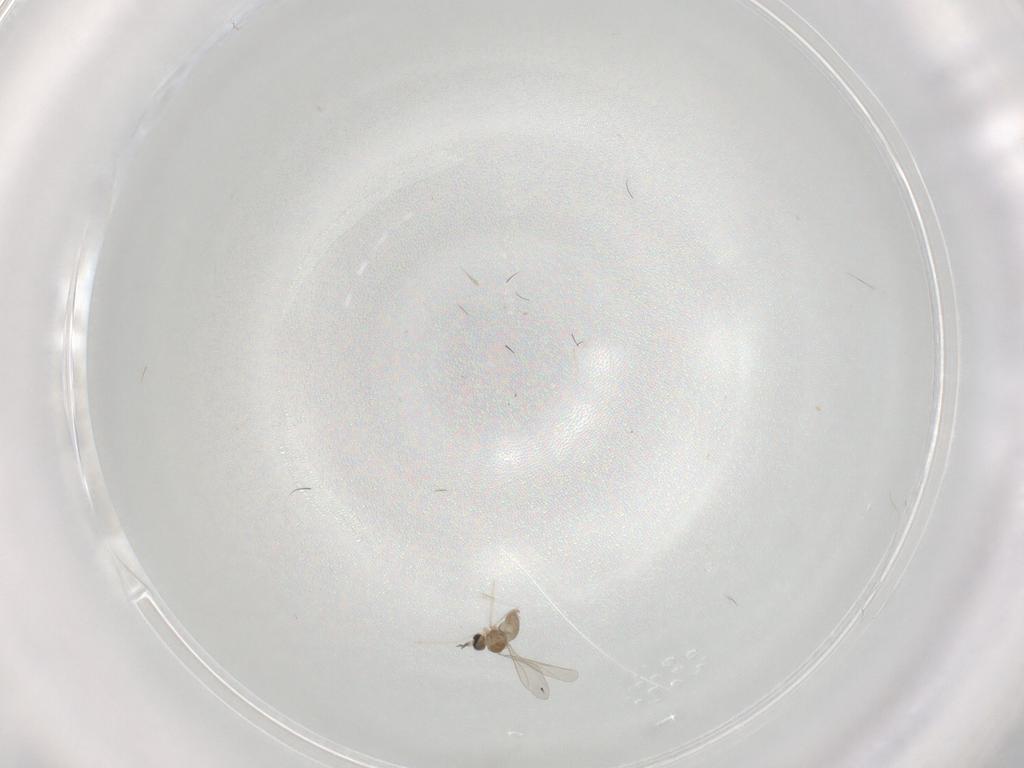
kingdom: Animalia
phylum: Arthropoda
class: Insecta
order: Diptera
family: Cecidomyiidae
